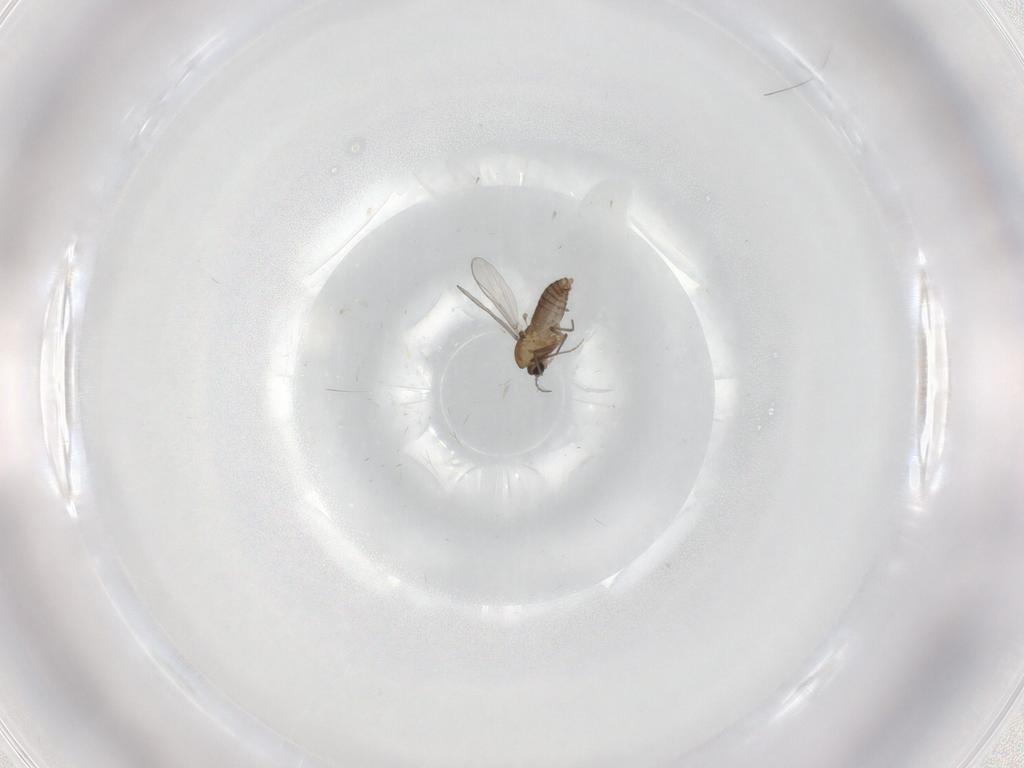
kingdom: Animalia
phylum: Arthropoda
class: Insecta
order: Diptera
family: Chironomidae
